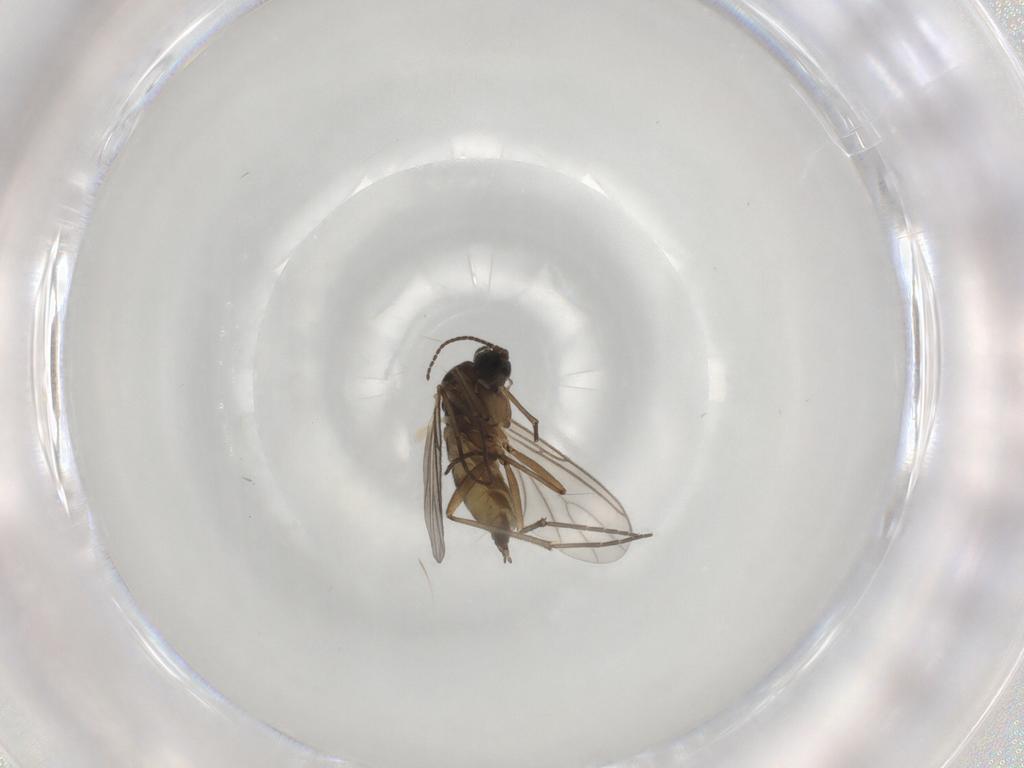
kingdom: Animalia
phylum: Arthropoda
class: Insecta
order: Diptera
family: Sciaridae
